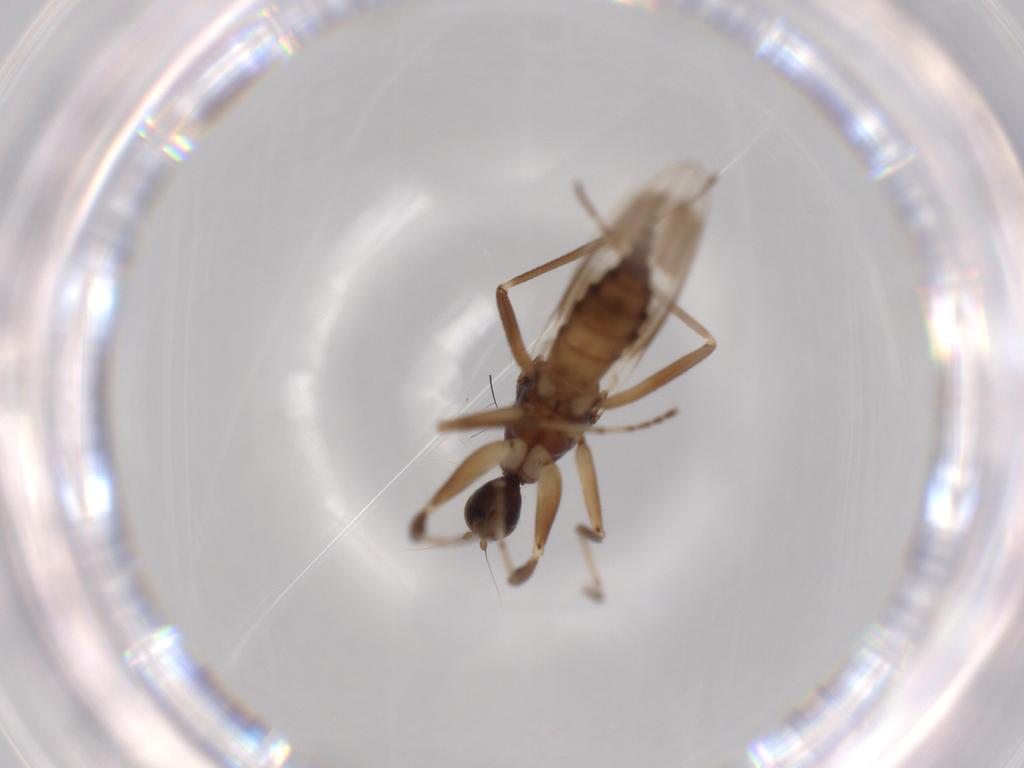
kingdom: Animalia
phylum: Arthropoda
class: Insecta
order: Diptera
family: Hybotidae
